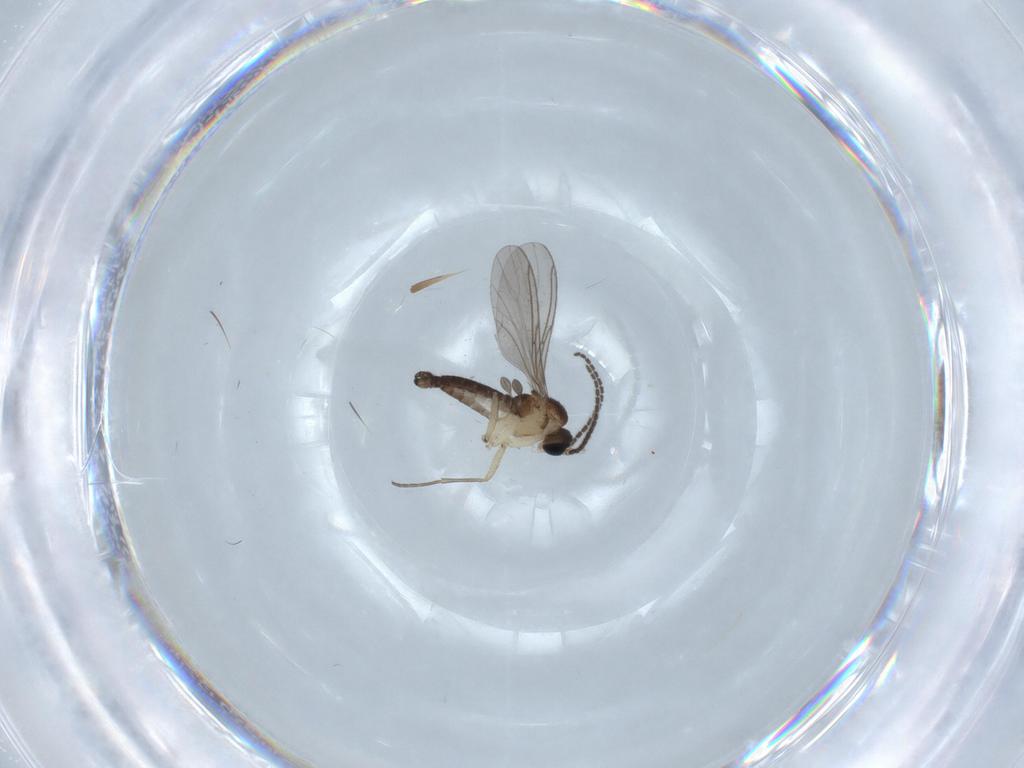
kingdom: Animalia
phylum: Arthropoda
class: Insecta
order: Diptera
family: Sciaridae
